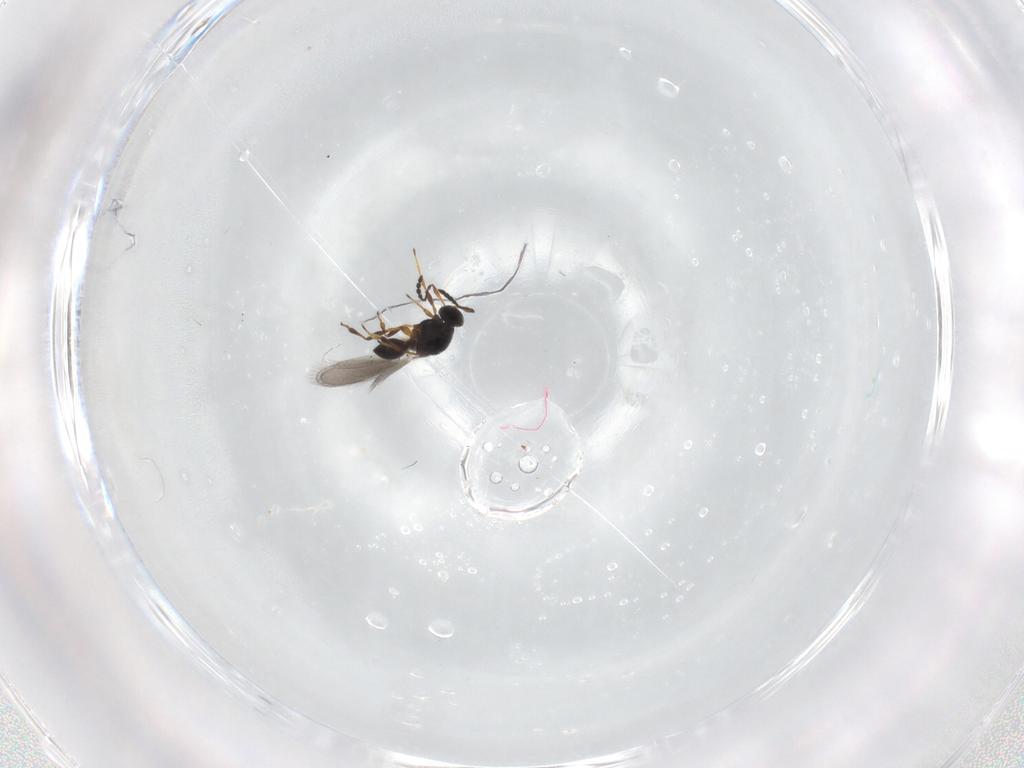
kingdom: Animalia
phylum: Arthropoda
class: Insecta
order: Hymenoptera
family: Platygastridae
